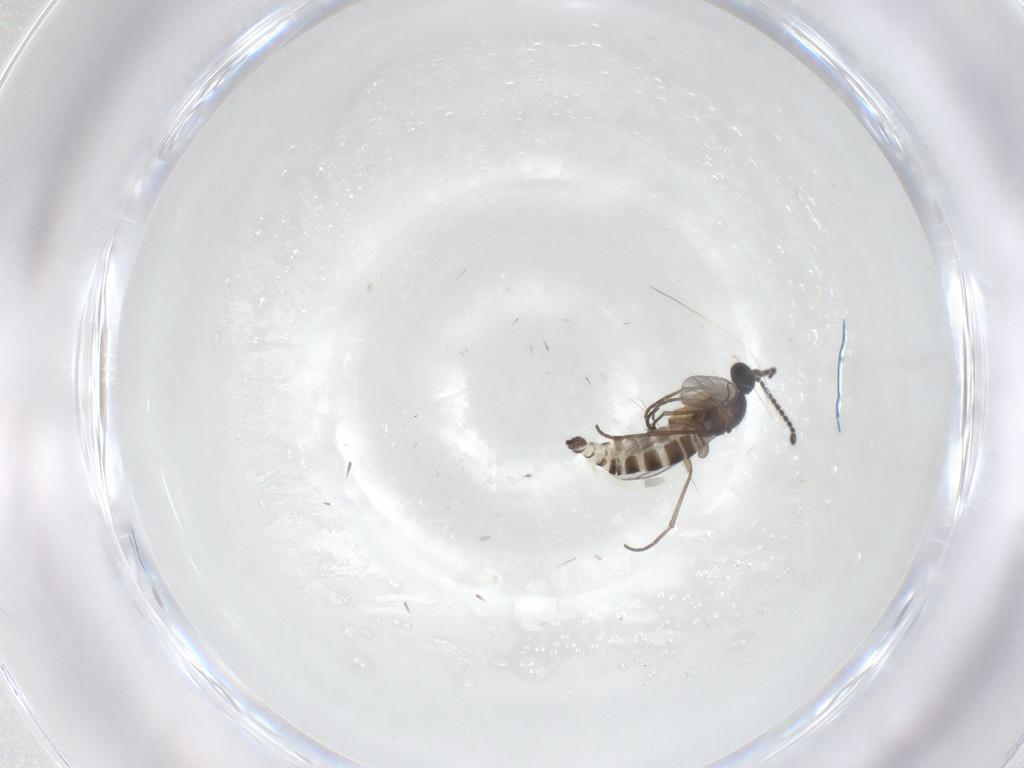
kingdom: Animalia
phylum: Arthropoda
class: Insecta
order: Diptera
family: Sciaridae
